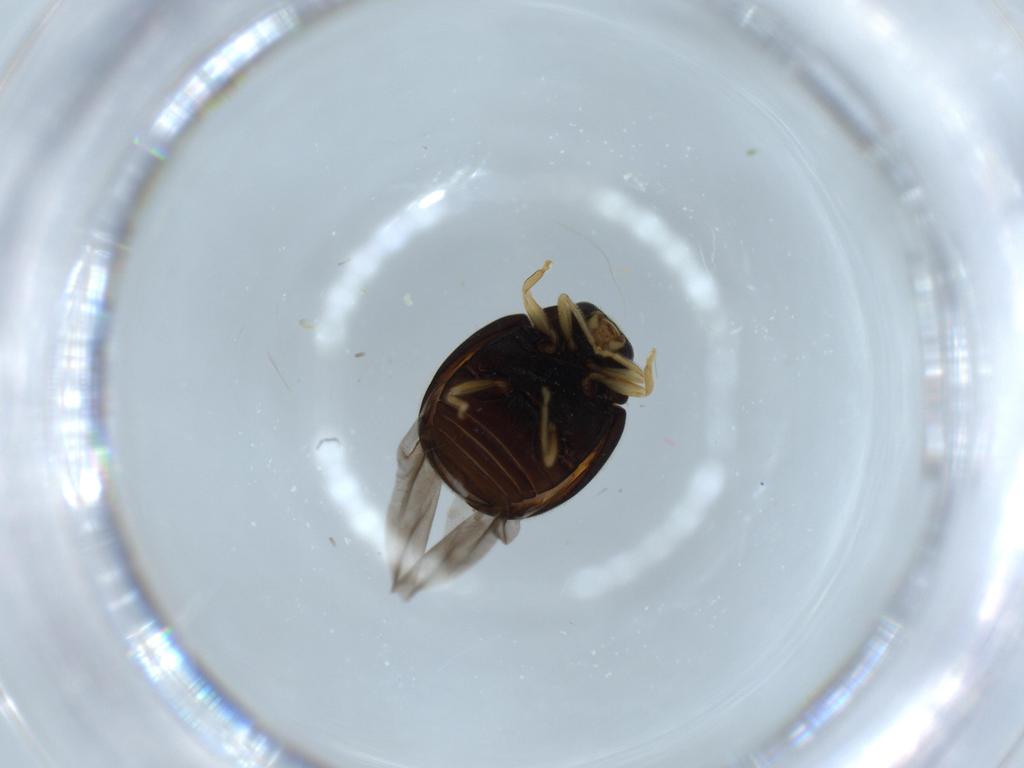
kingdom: Animalia
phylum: Arthropoda
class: Insecta
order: Coleoptera
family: Coccinellidae
